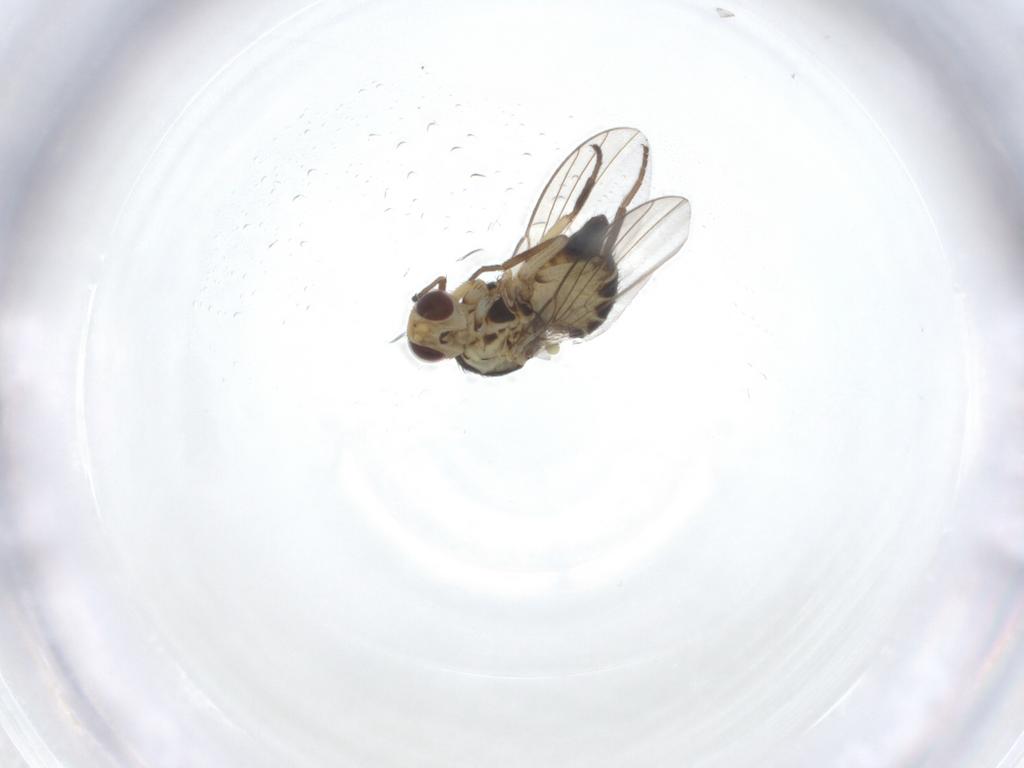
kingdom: Animalia
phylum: Arthropoda
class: Insecta
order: Diptera
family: Agromyzidae
